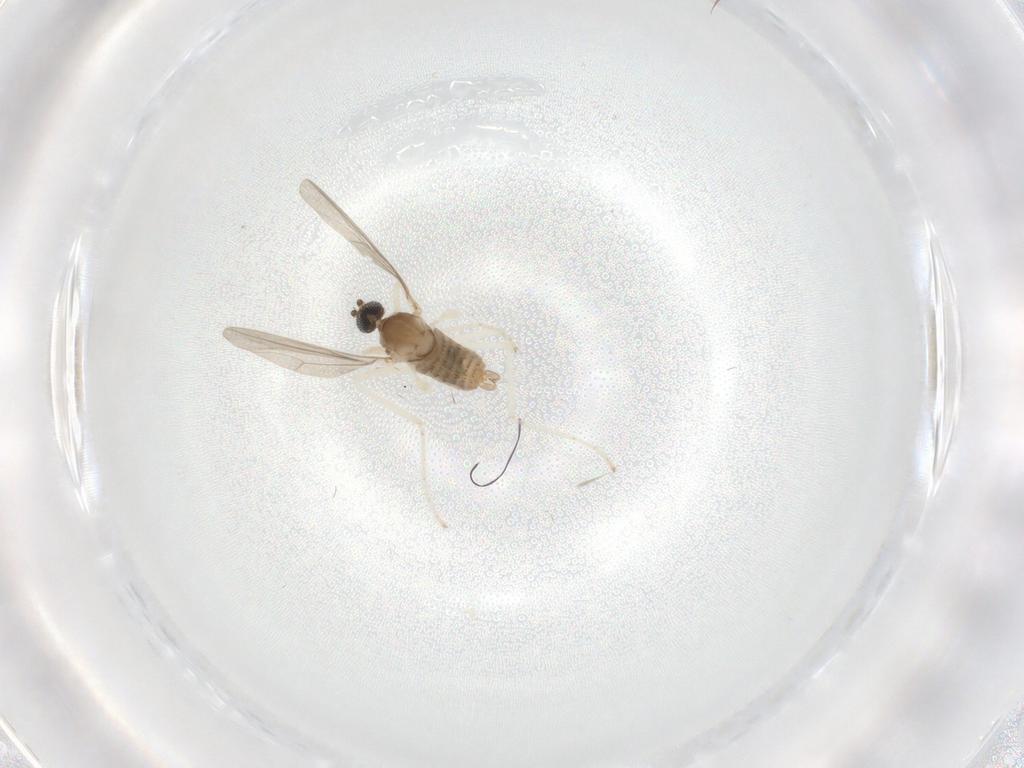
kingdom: Animalia
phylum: Arthropoda
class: Insecta
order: Diptera
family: Chironomidae
